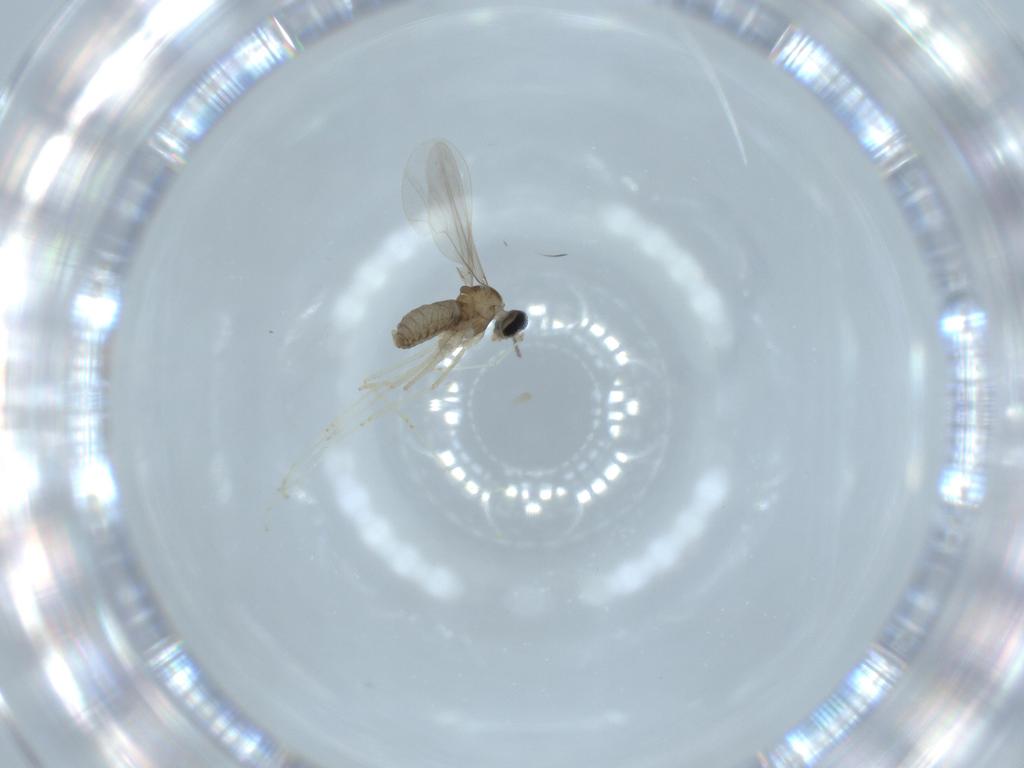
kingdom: Animalia
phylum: Arthropoda
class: Insecta
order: Diptera
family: Cecidomyiidae
